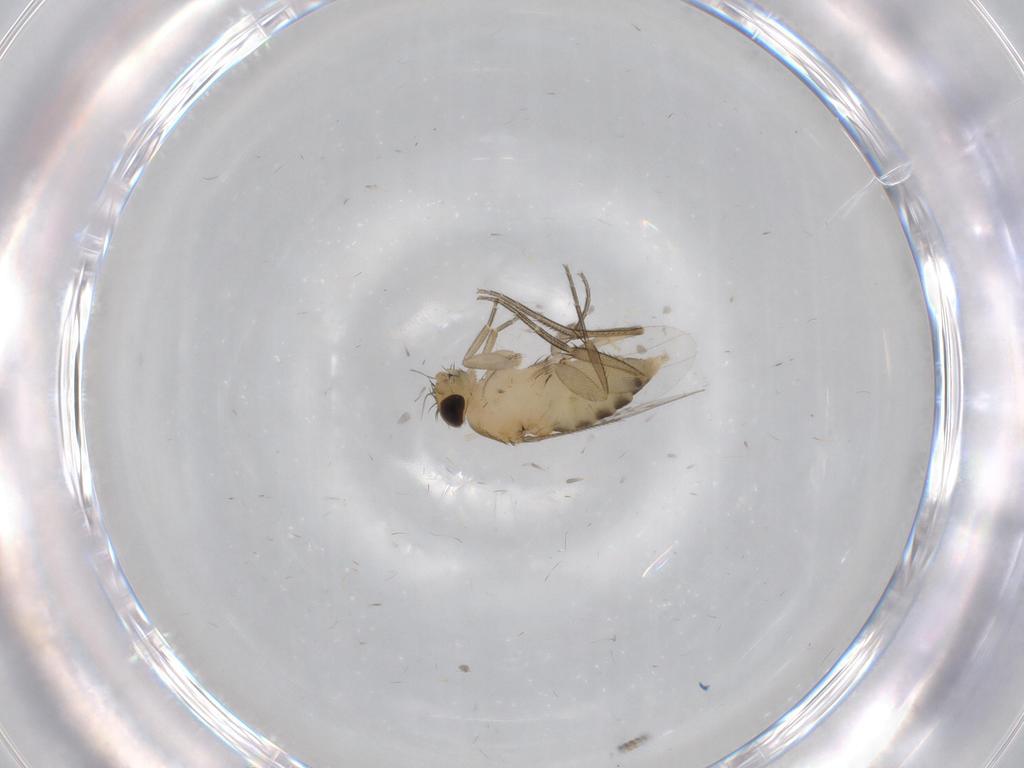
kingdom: Animalia
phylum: Arthropoda
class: Insecta
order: Diptera
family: Phoridae
